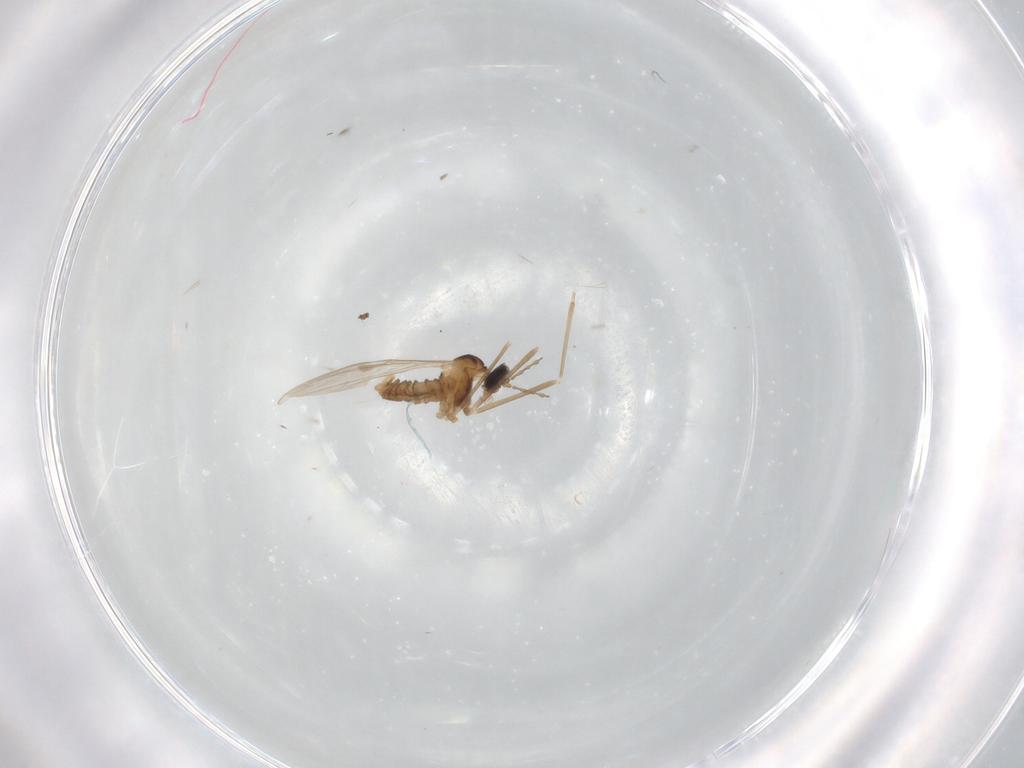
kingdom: Animalia
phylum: Arthropoda
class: Insecta
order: Diptera
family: Cecidomyiidae
